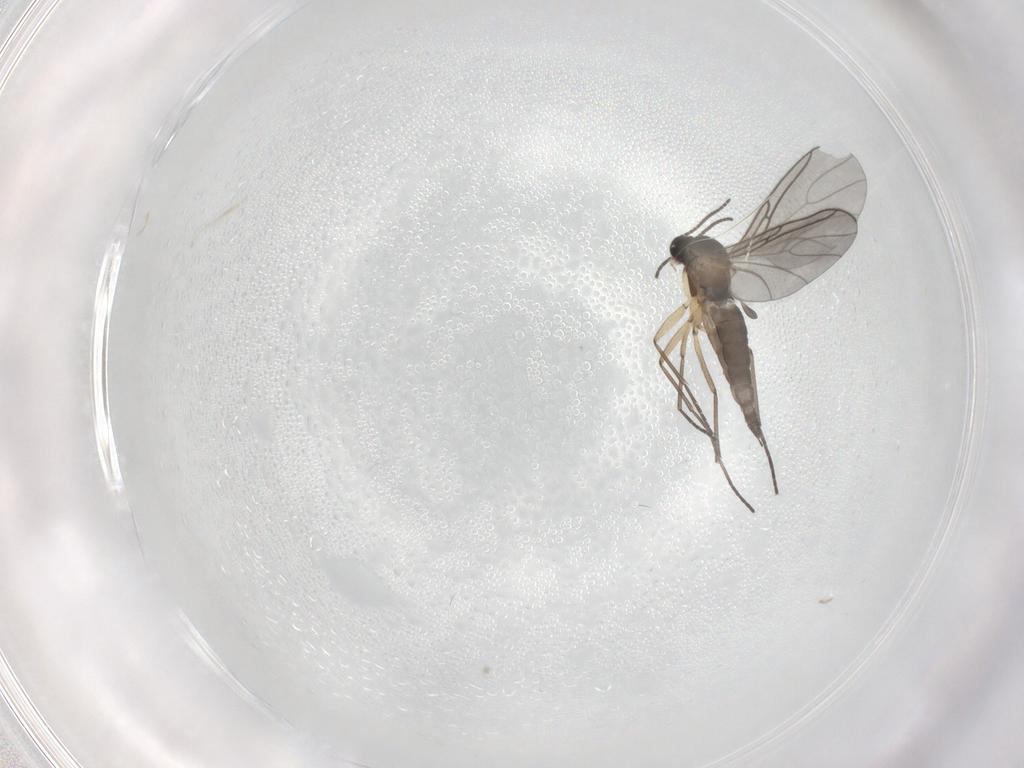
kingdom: Animalia
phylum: Arthropoda
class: Insecta
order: Diptera
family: Sciaridae
